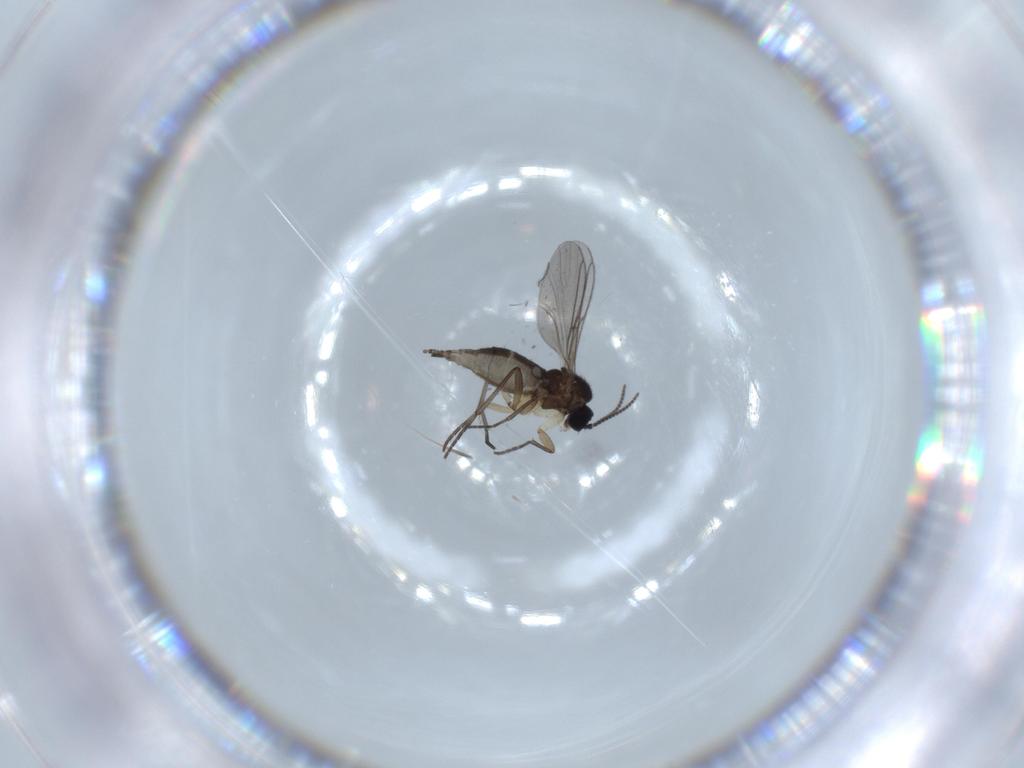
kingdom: Animalia
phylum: Arthropoda
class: Insecta
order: Diptera
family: Sciaridae
